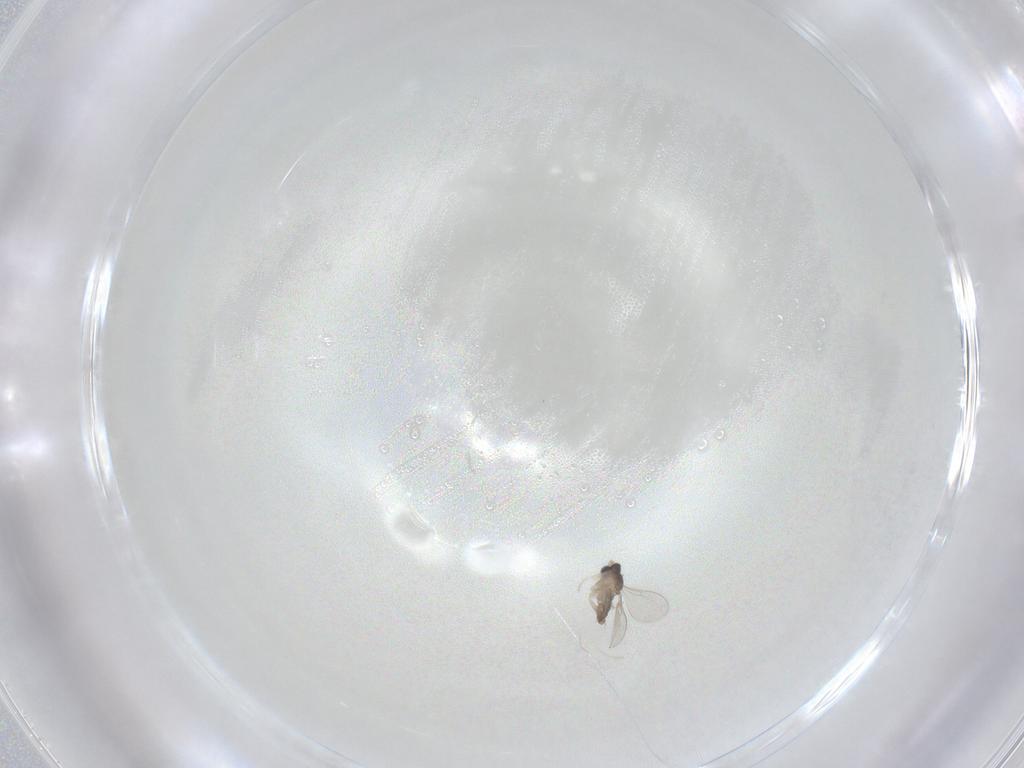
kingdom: Animalia
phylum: Arthropoda
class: Insecta
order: Diptera
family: Cecidomyiidae
